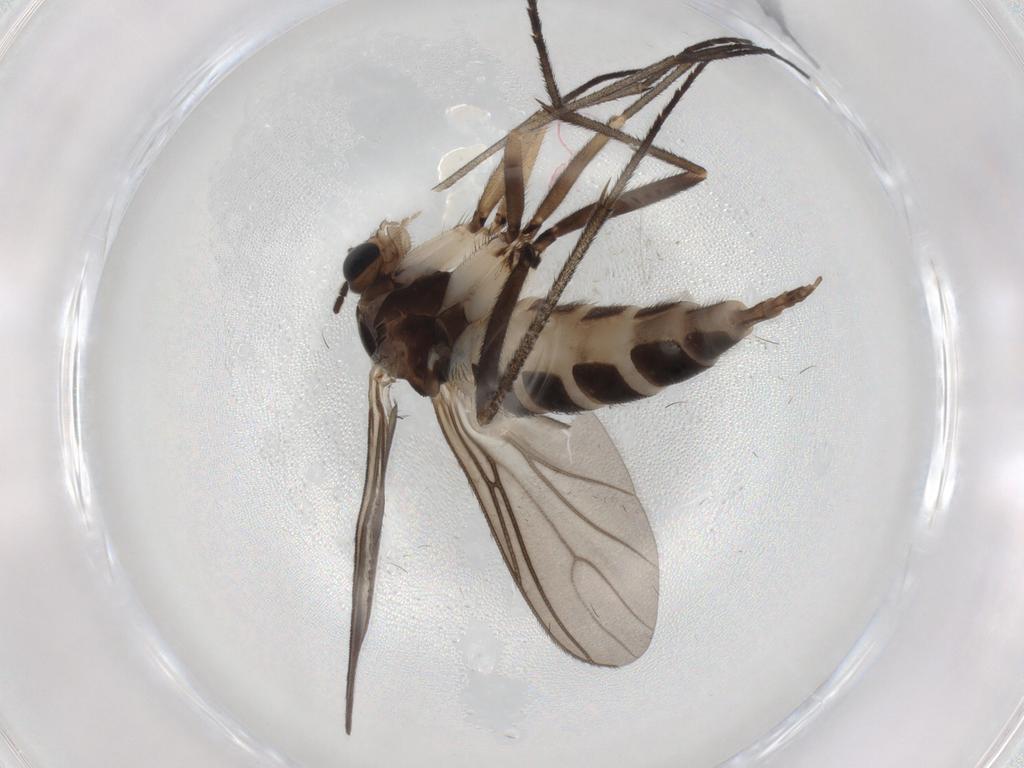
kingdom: Animalia
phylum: Arthropoda
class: Insecta
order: Diptera
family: Sciaridae
